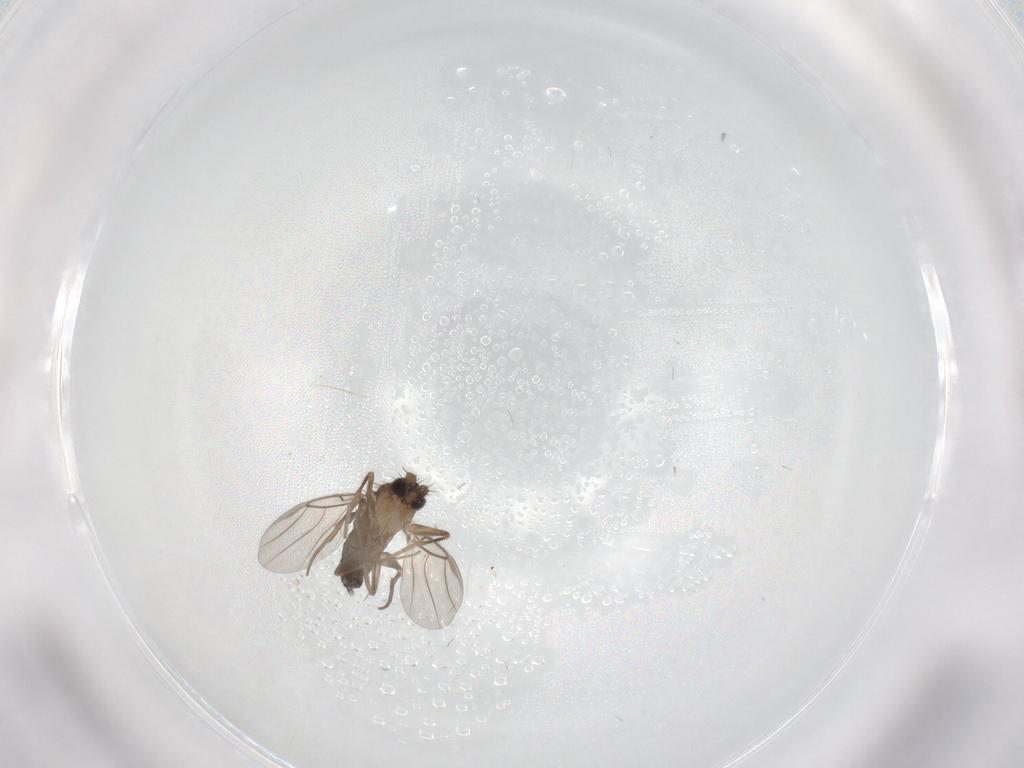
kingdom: Animalia
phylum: Arthropoda
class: Insecta
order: Diptera
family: Phoridae
